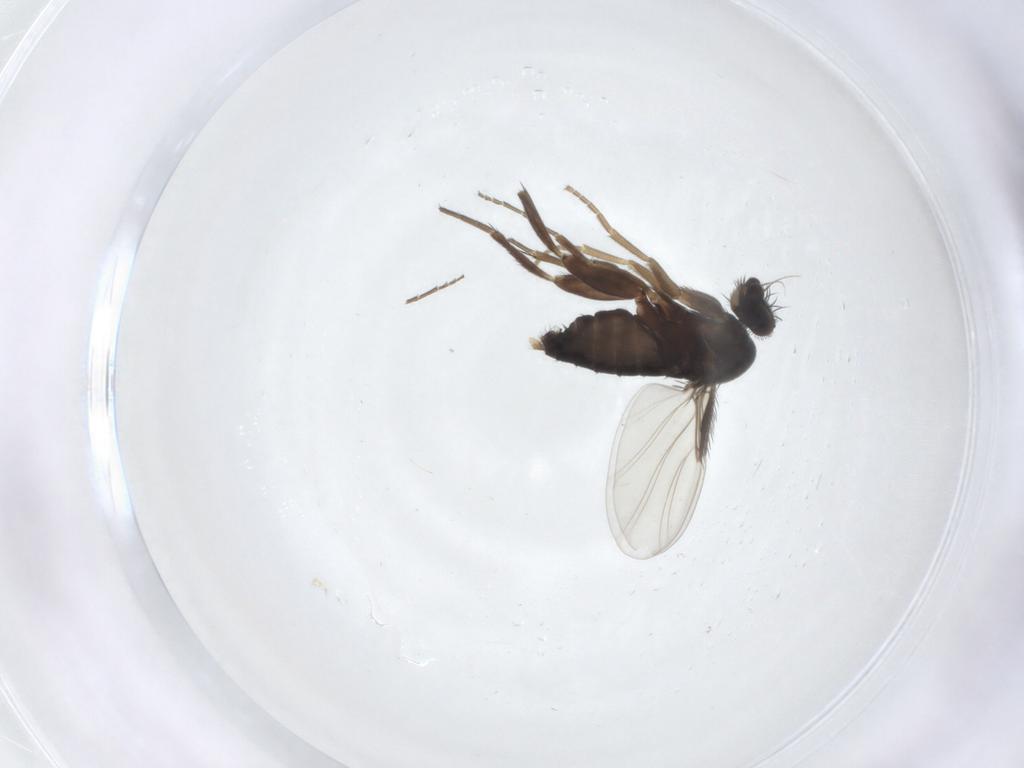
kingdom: Animalia
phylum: Arthropoda
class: Insecta
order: Diptera
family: Phoridae
